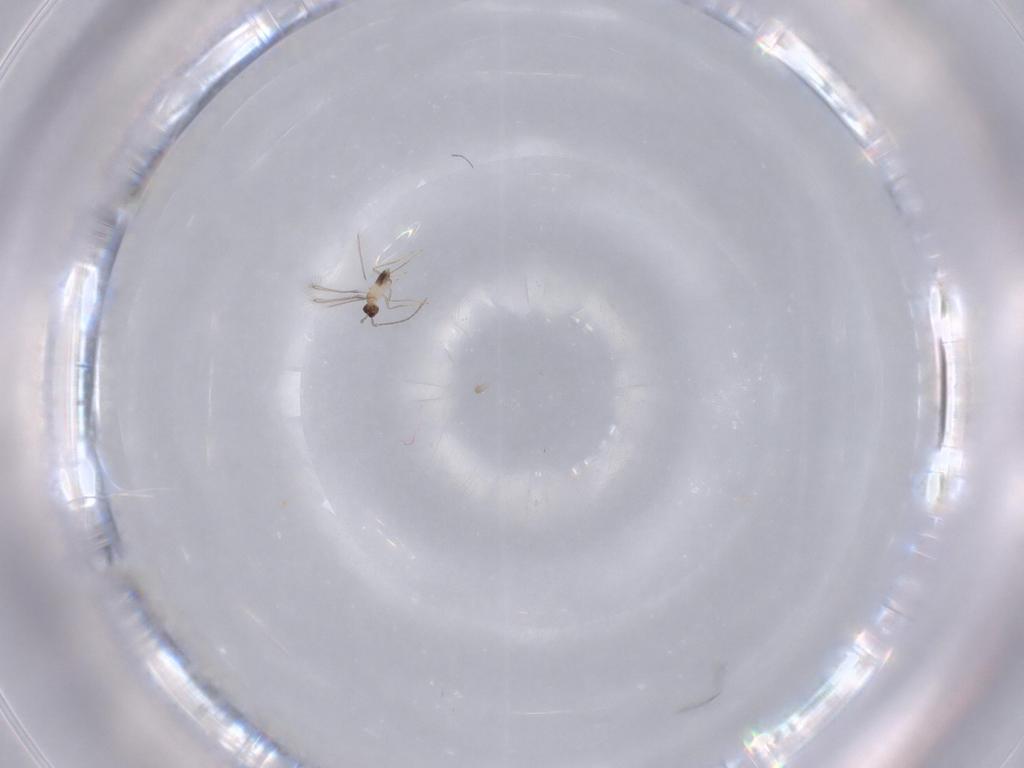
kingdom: Animalia
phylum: Arthropoda
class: Insecta
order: Hymenoptera
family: Mymaridae
